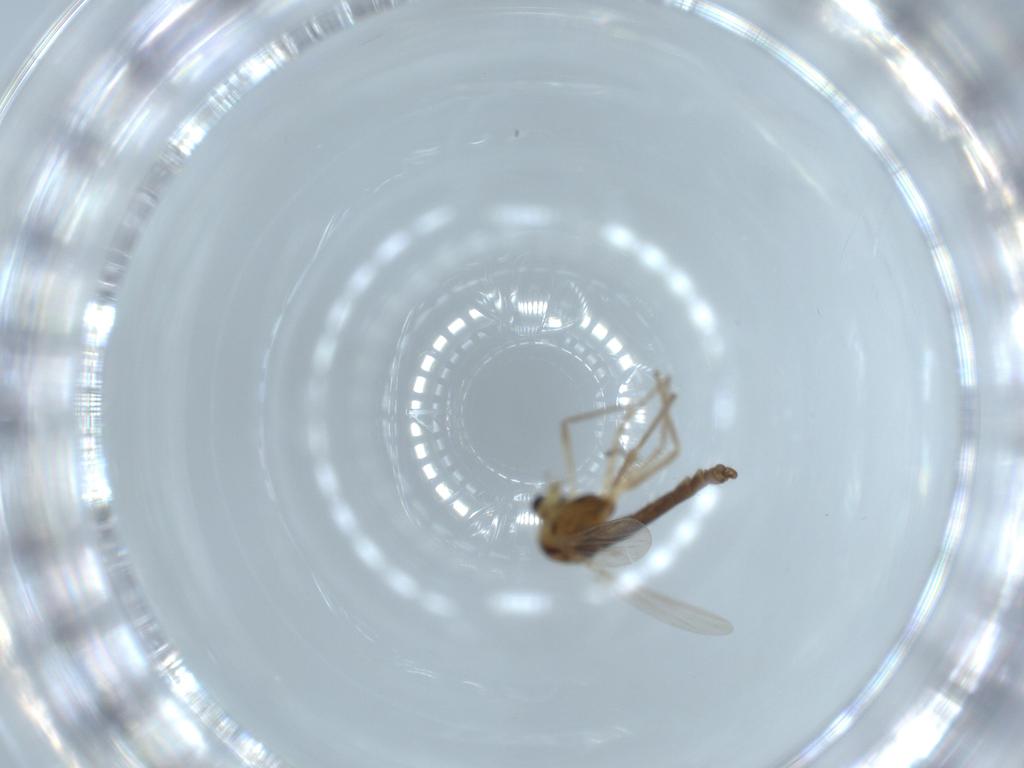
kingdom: Animalia
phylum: Arthropoda
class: Insecta
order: Diptera
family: Chironomidae
